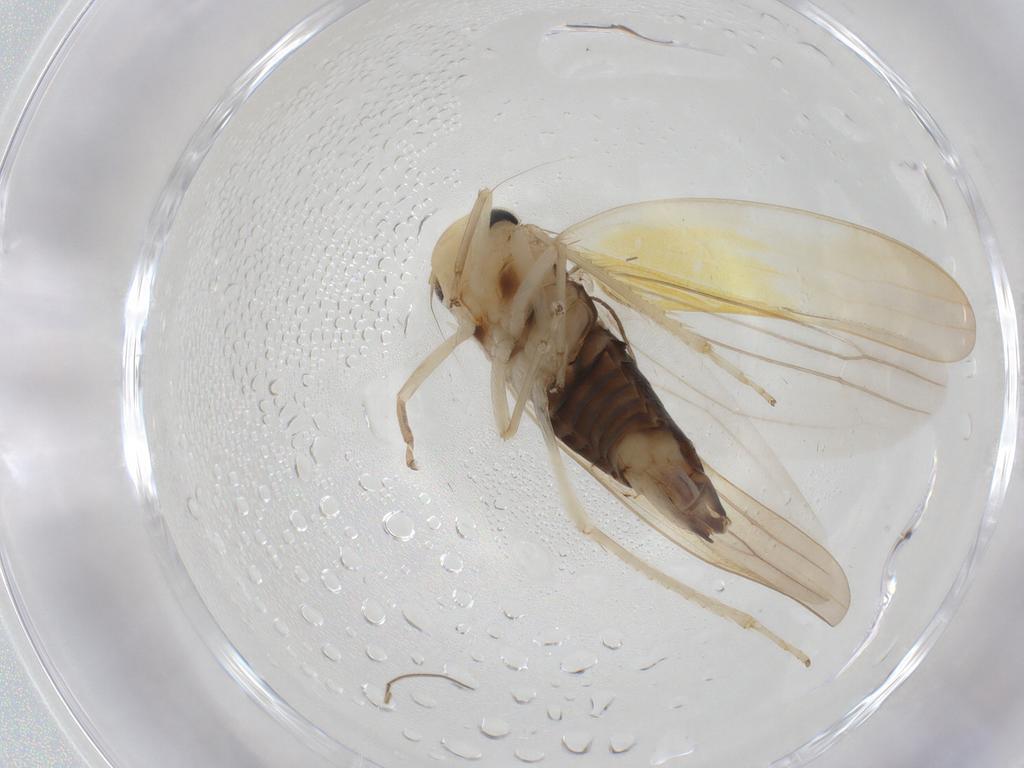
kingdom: Animalia
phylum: Arthropoda
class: Insecta
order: Hemiptera
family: Cicadellidae
